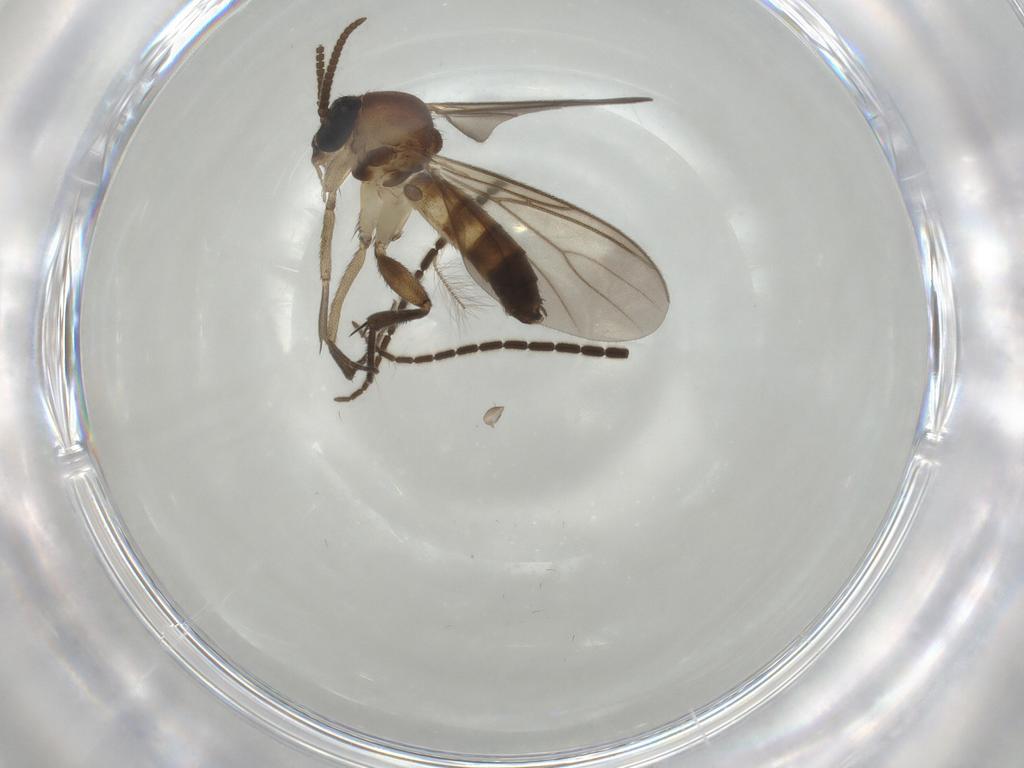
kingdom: Animalia
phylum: Arthropoda
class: Insecta
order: Diptera
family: Mycetophilidae
